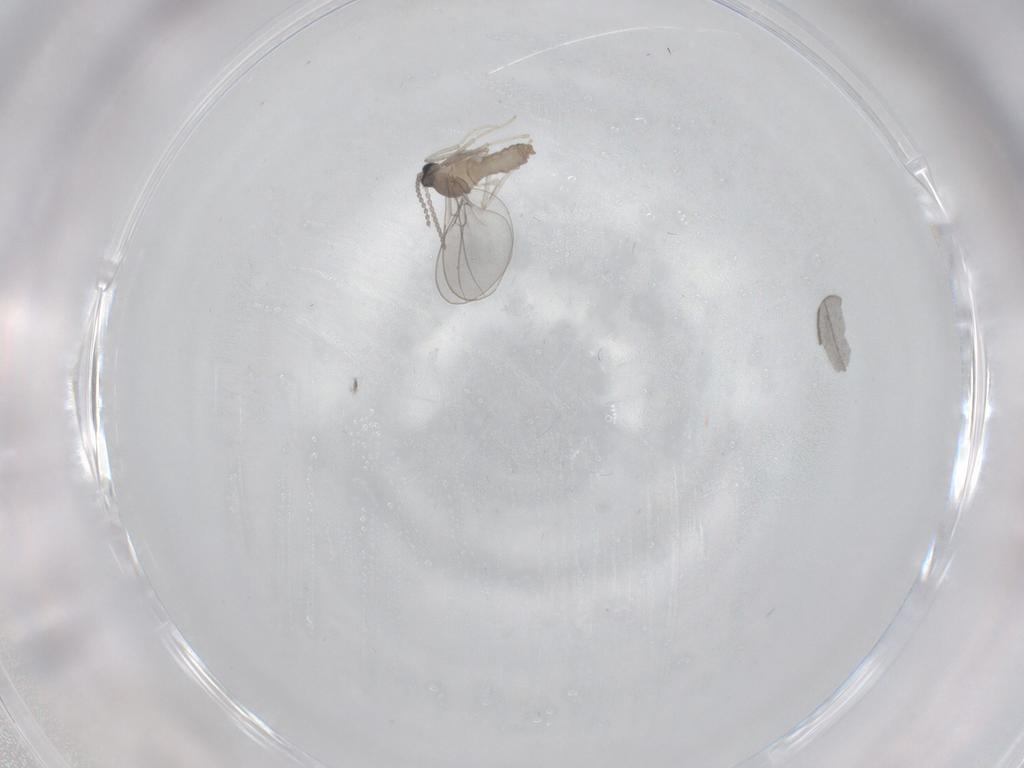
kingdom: Animalia
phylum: Arthropoda
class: Insecta
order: Diptera
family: Cecidomyiidae
